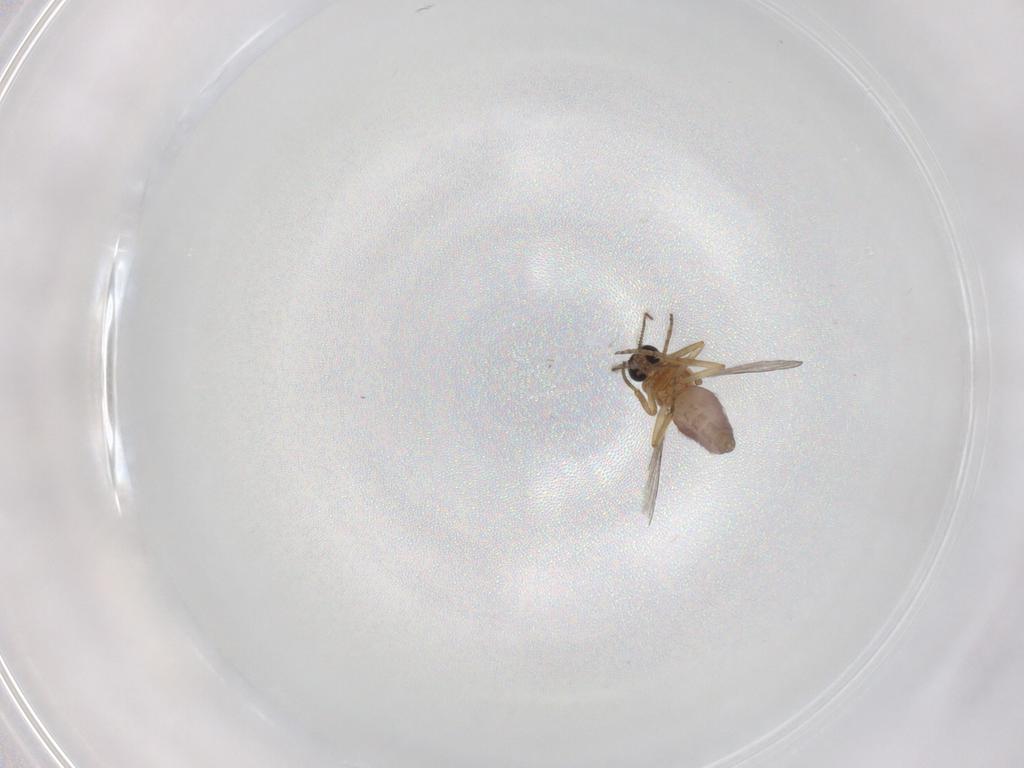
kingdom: Animalia
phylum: Arthropoda
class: Insecta
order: Diptera
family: Ceratopogonidae
